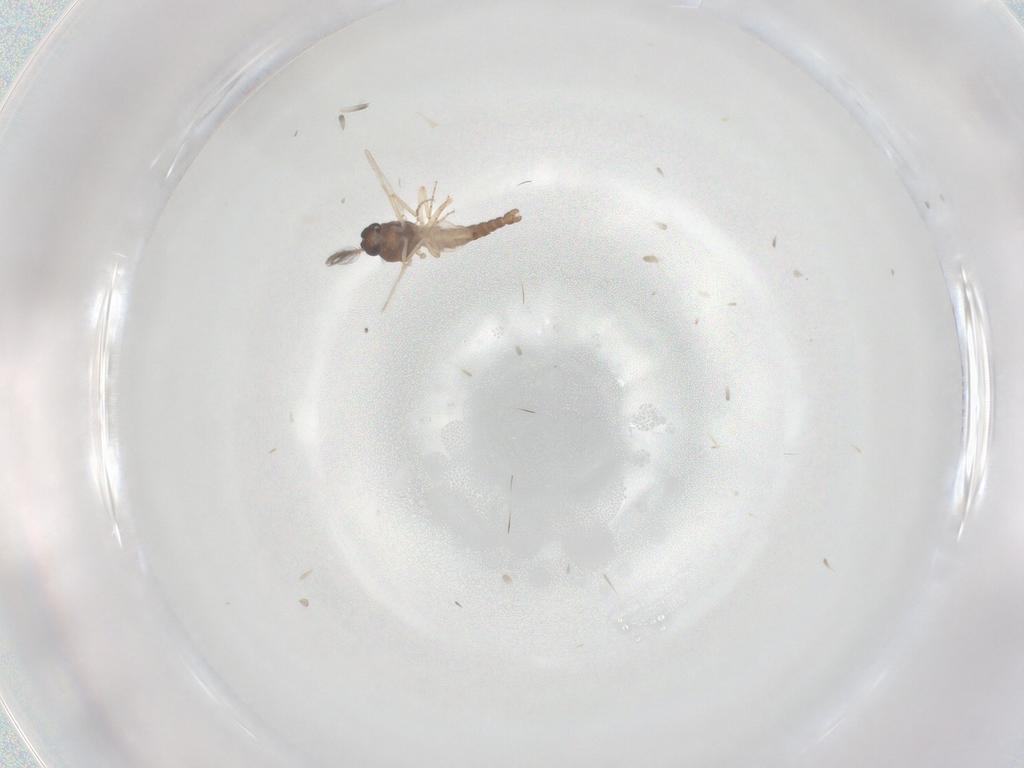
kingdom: Animalia
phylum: Arthropoda
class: Insecta
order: Diptera
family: Ceratopogonidae
